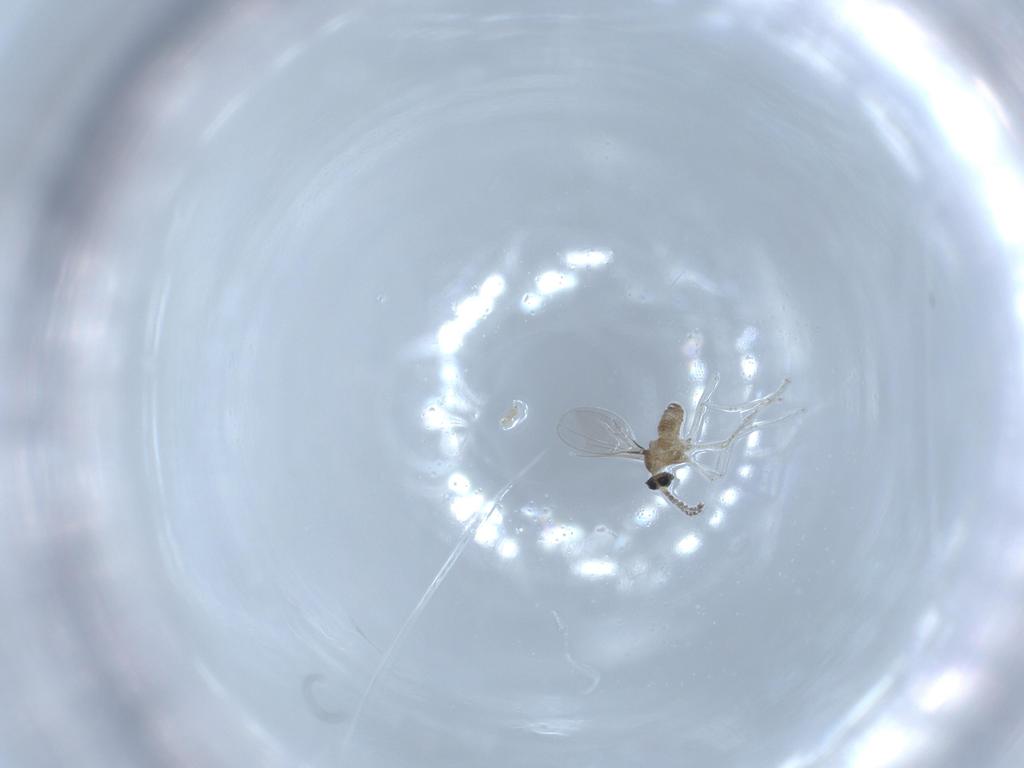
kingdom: Animalia
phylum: Arthropoda
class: Insecta
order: Diptera
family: Cecidomyiidae
